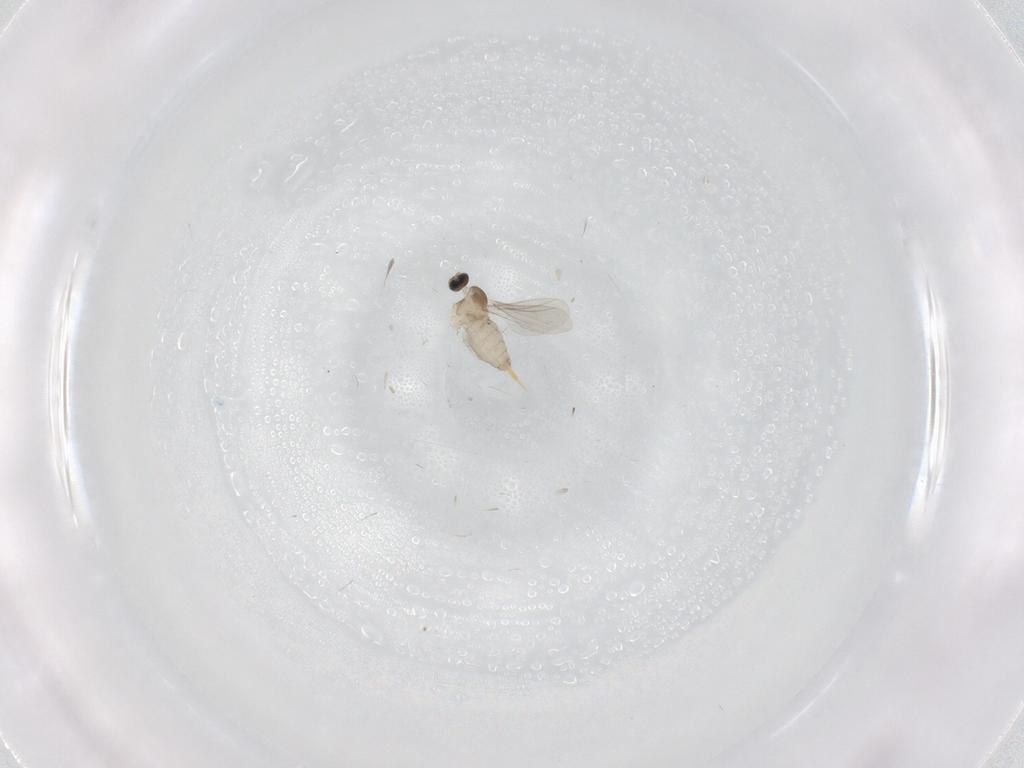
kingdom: Animalia
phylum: Arthropoda
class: Insecta
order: Diptera
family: Cecidomyiidae
